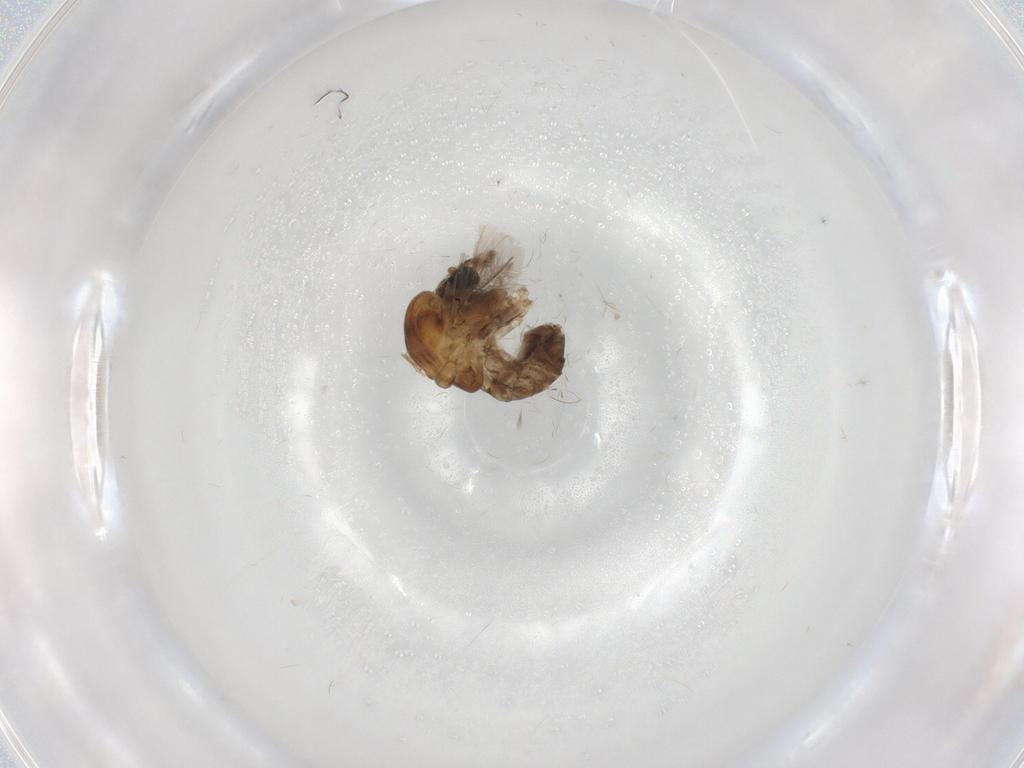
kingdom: Animalia
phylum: Arthropoda
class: Insecta
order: Diptera
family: Chironomidae
